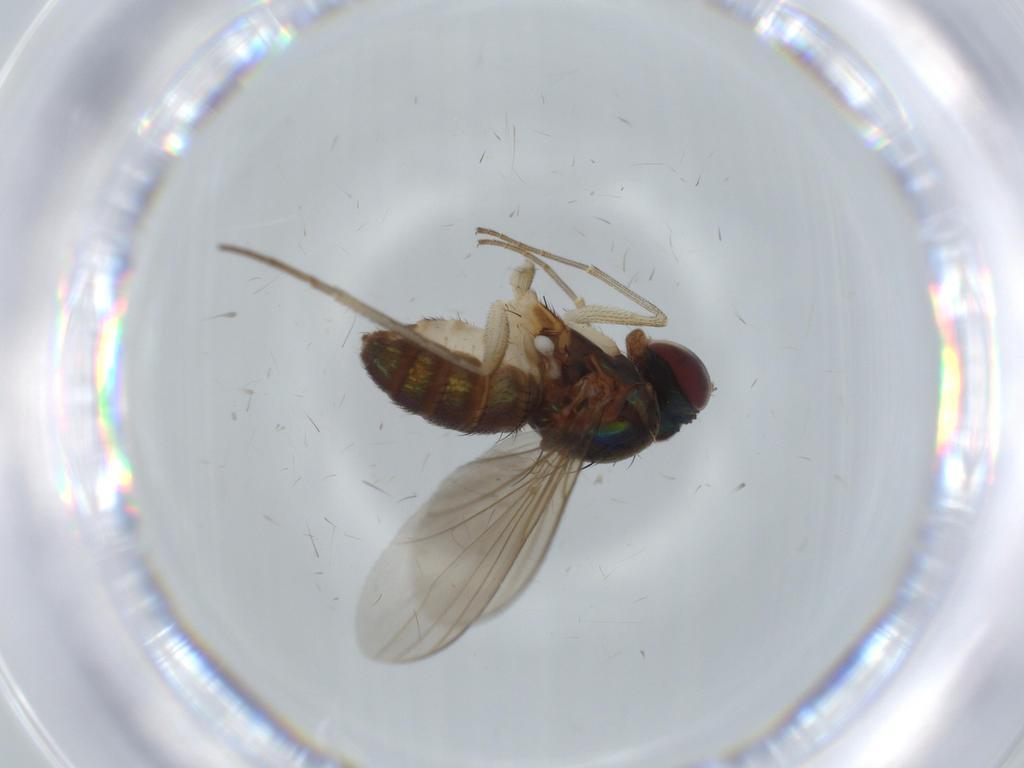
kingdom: Animalia
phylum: Arthropoda
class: Insecta
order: Diptera
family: Dolichopodidae
